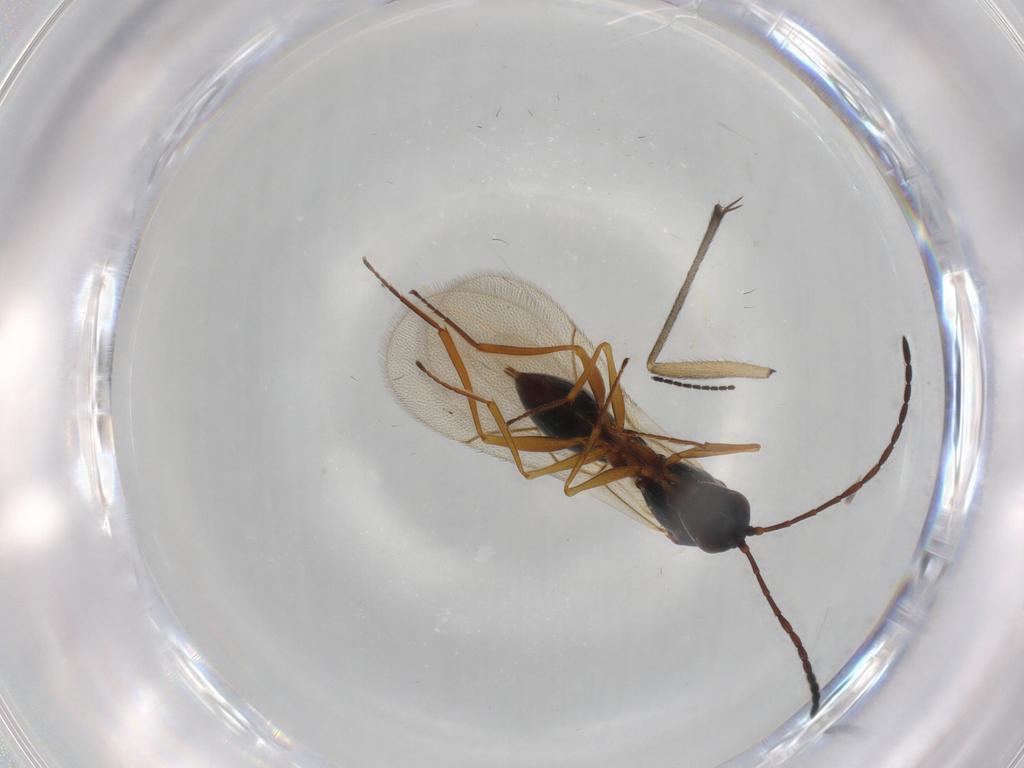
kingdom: Animalia
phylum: Arthropoda
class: Insecta
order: Hymenoptera
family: Figitidae
